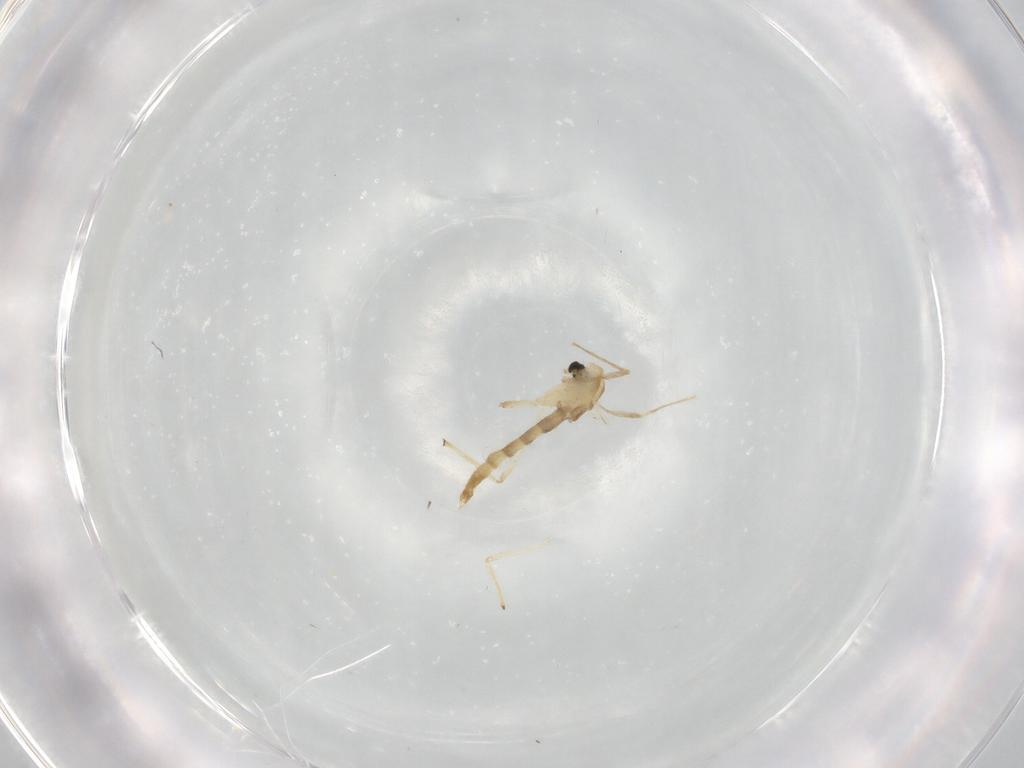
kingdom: Animalia
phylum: Arthropoda
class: Insecta
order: Diptera
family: Chironomidae
